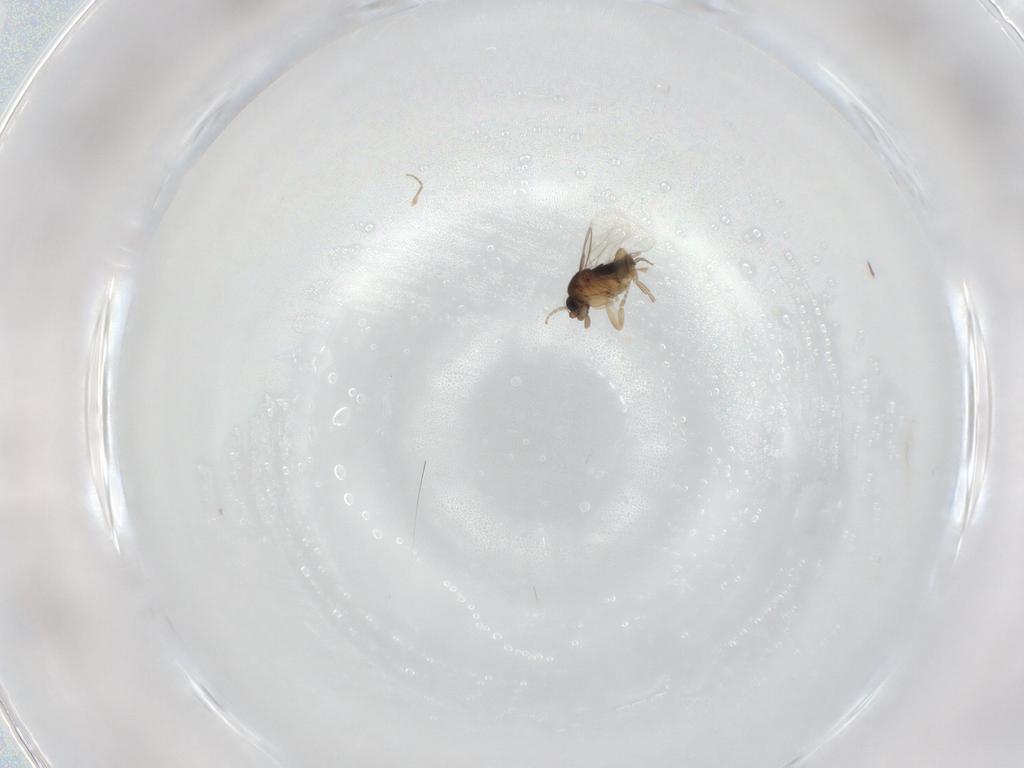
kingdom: Animalia
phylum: Arthropoda
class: Insecta
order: Diptera
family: Phoridae
